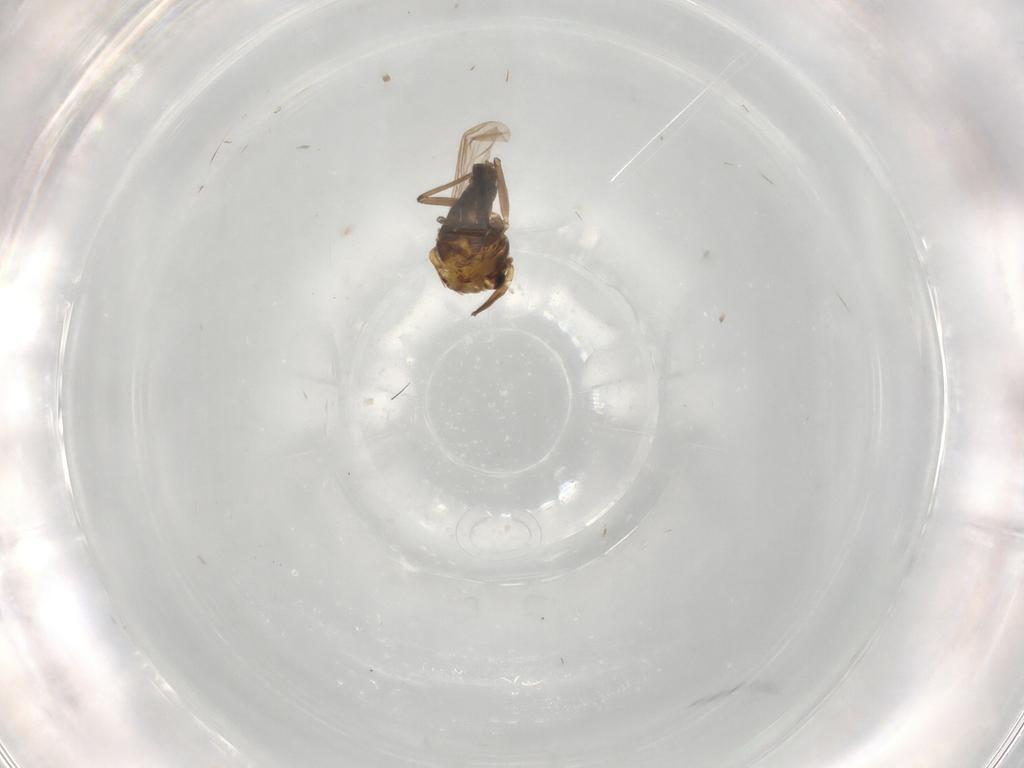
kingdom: Animalia
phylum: Arthropoda
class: Insecta
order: Diptera
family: Chironomidae
